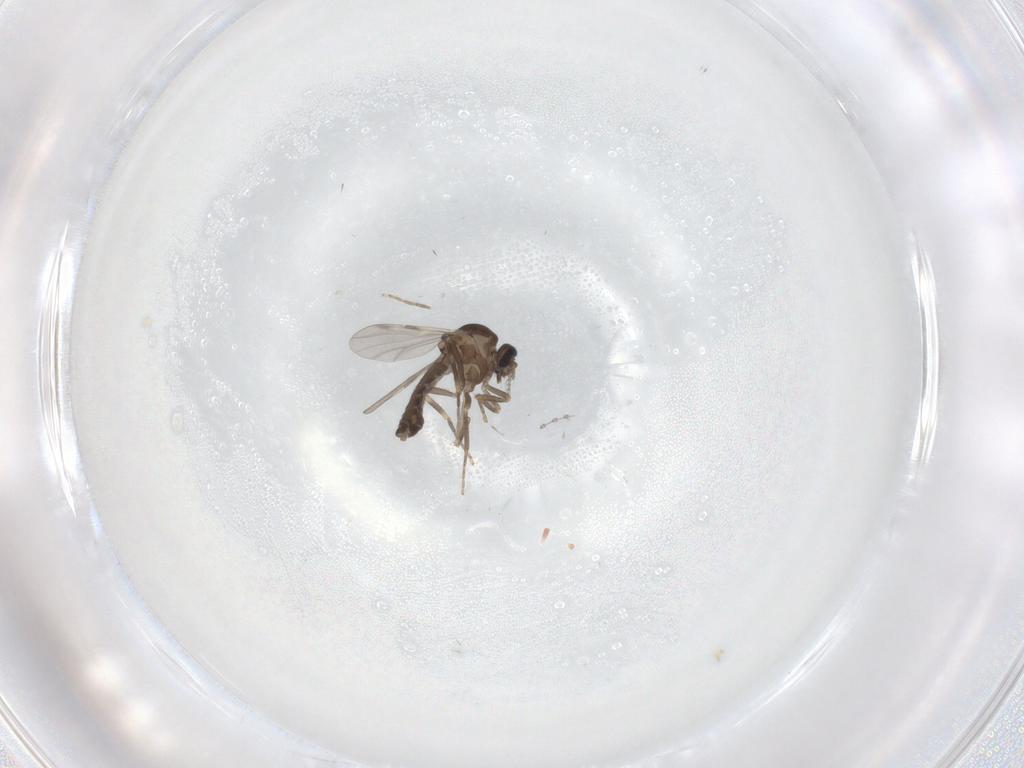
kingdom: Animalia
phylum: Arthropoda
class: Insecta
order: Diptera
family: Ceratopogonidae
